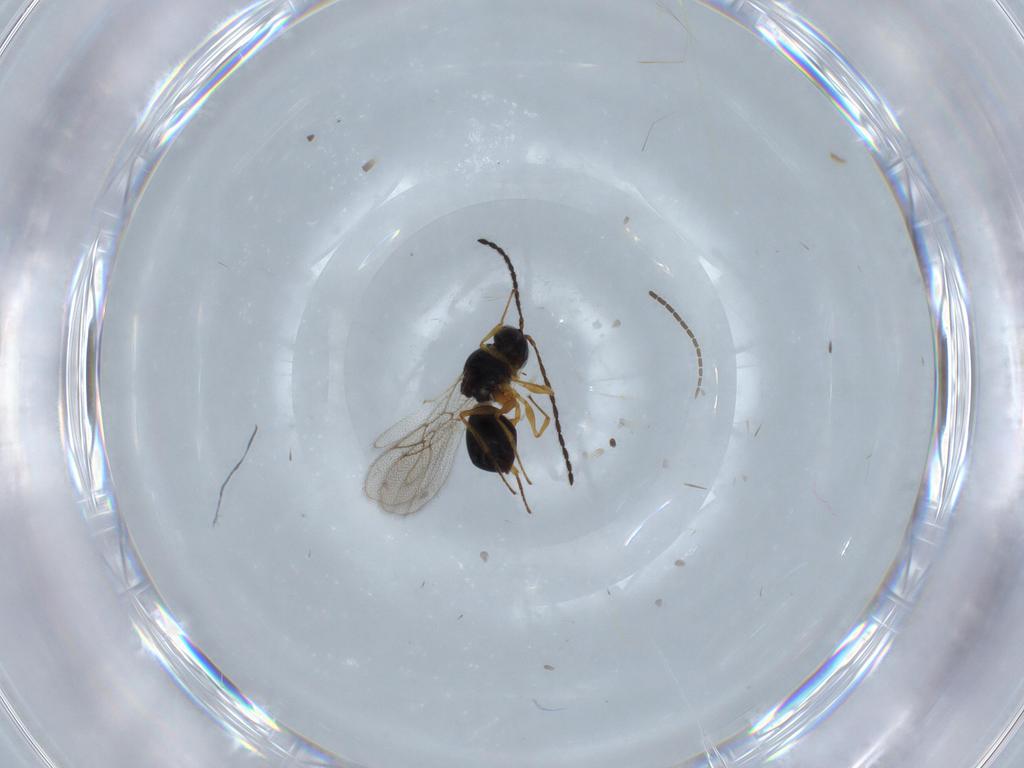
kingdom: Animalia
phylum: Arthropoda
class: Insecta
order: Hymenoptera
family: Figitidae
